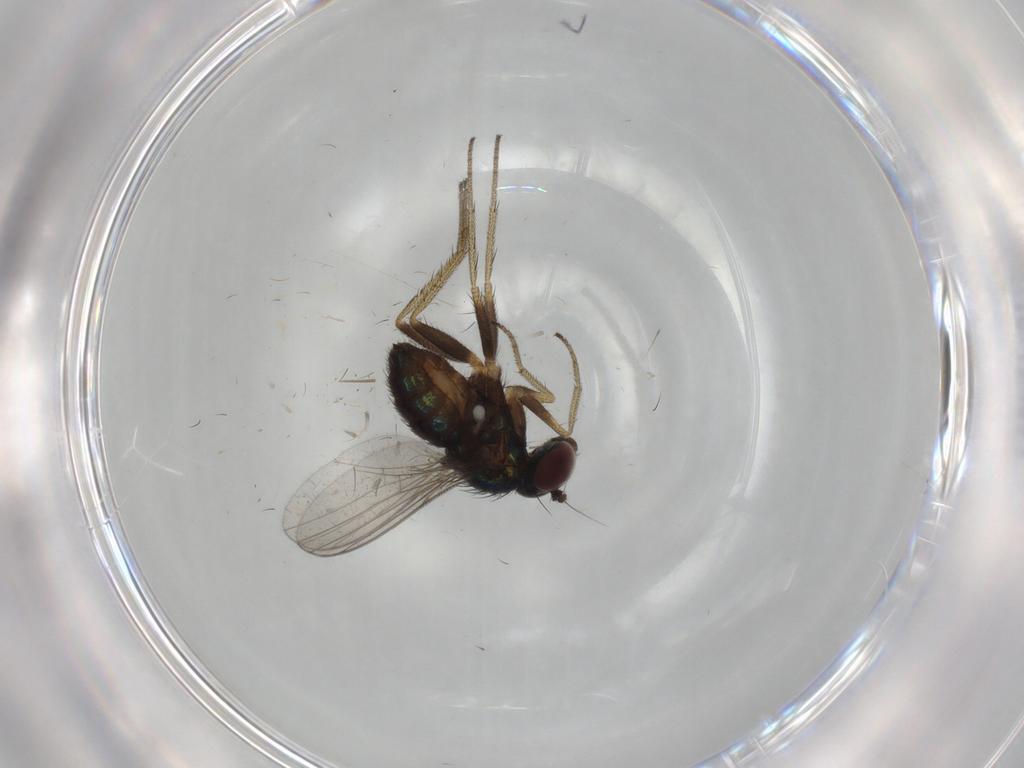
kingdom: Animalia
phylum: Arthropoda
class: Insecta
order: Diptera
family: Dolichopodidae
